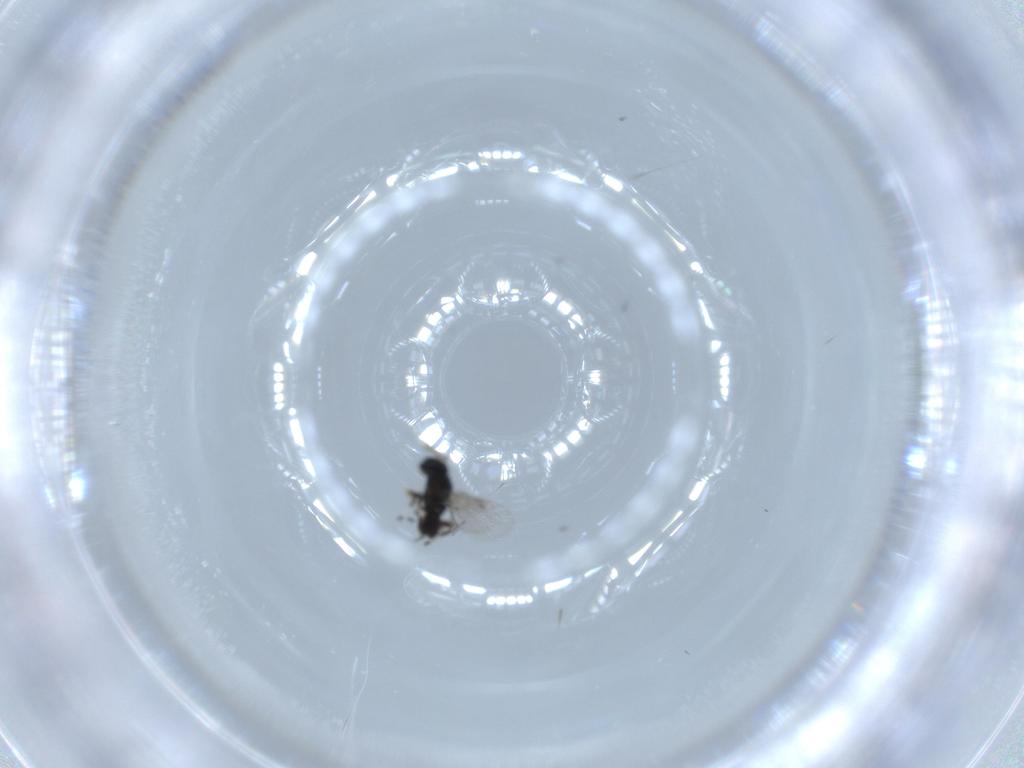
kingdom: Animalia
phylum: Arthropoda
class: Insecta
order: Hymenoptera
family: Eulophidae
